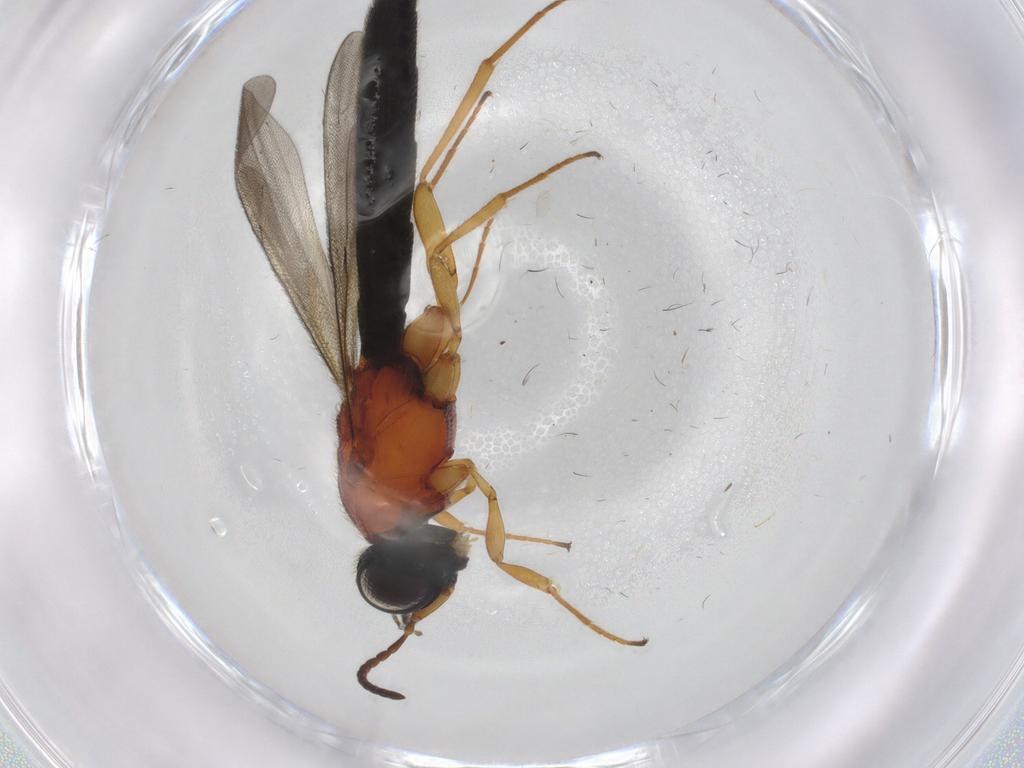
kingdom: Animalia
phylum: Arthropoda
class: Insecta
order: Hymenoptera
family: Scelionidae
